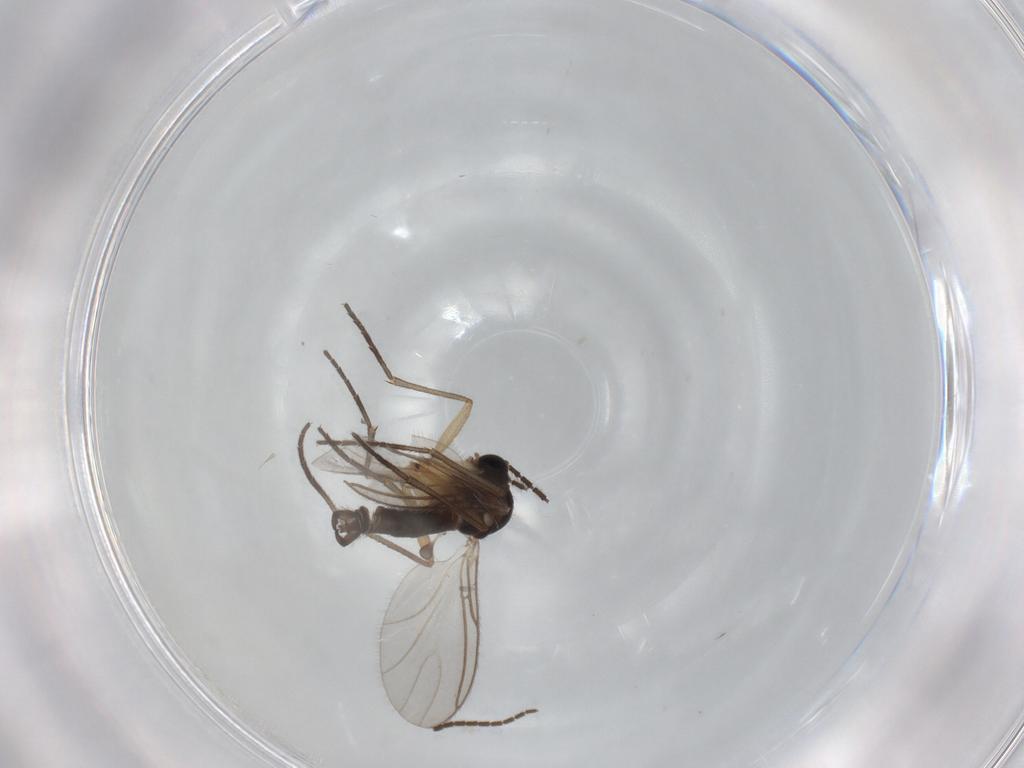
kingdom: Animalia
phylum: Arthropoda
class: Insecta
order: Diptera
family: Sciaridae
